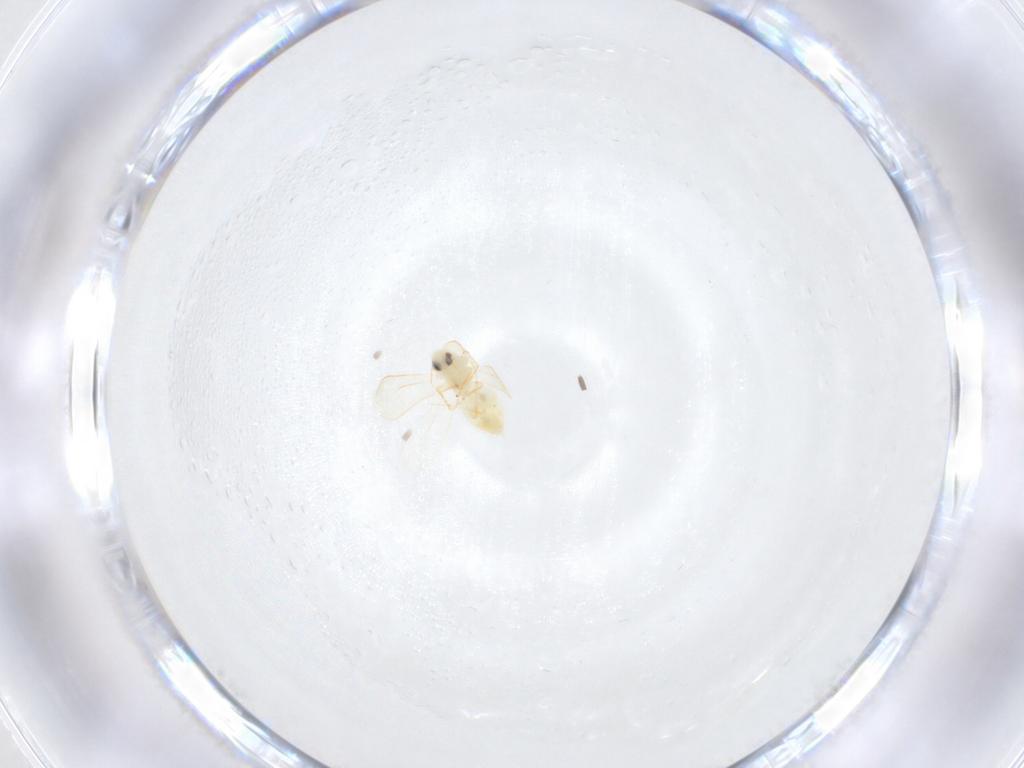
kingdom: Animalia
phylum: Arthropoda
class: Insecta
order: Hemiptera
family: Aleyrodidae
